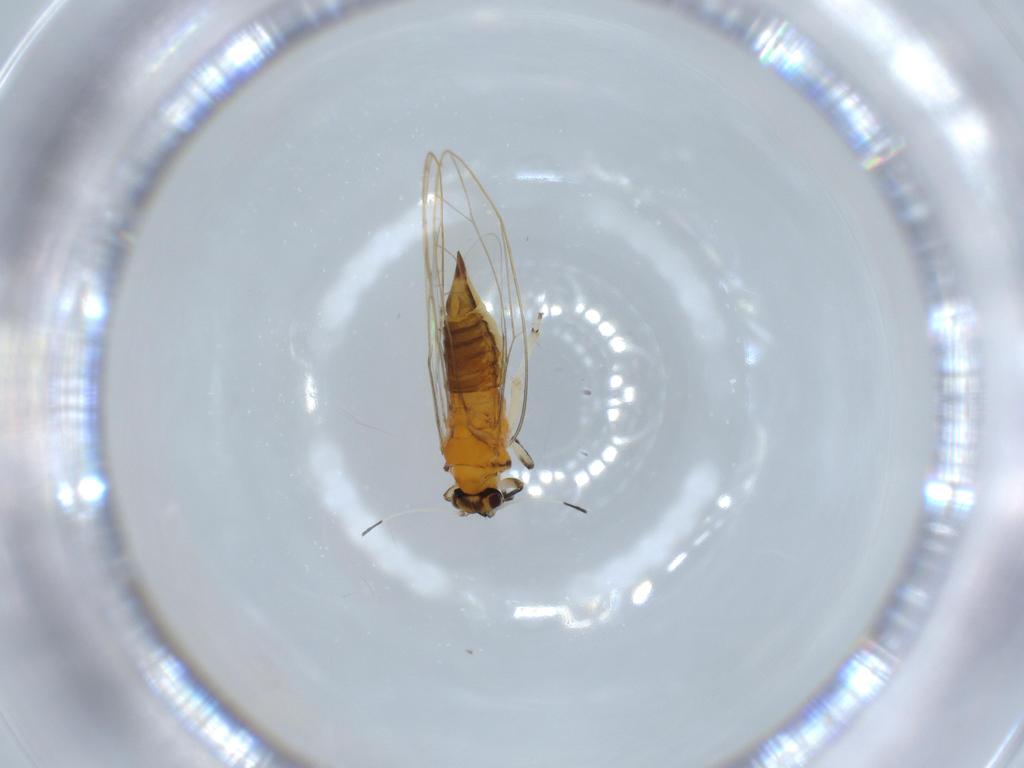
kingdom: Animalia
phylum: Arthropoda
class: Insecta
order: Hemiptera
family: Triozidae
